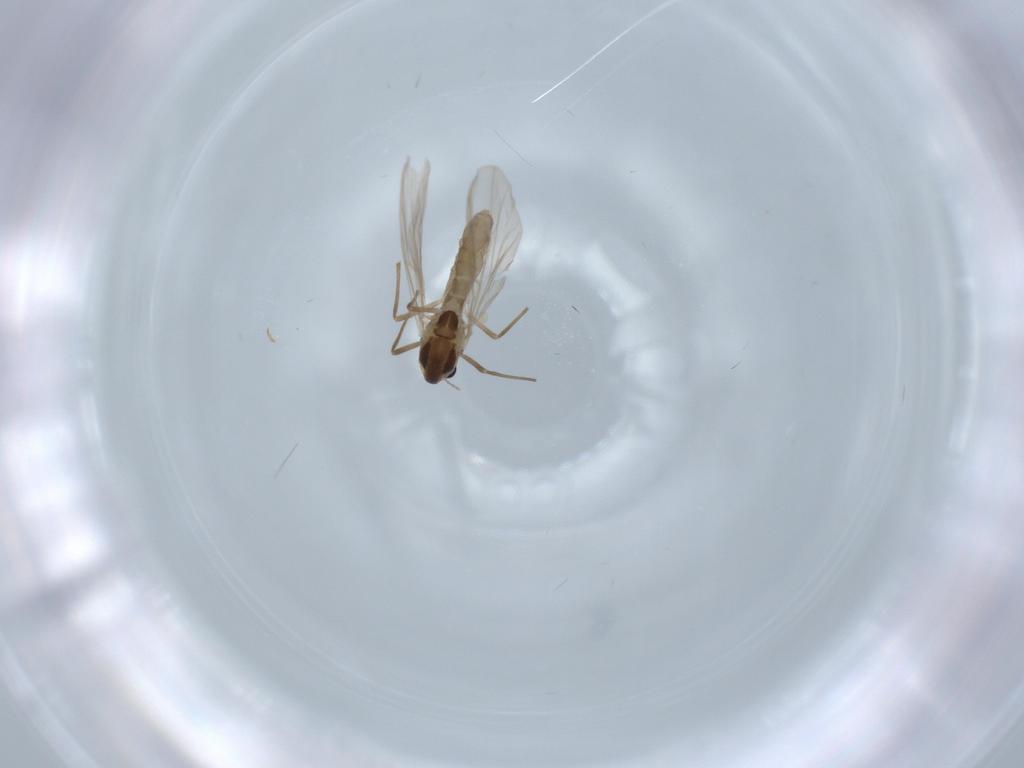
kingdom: Animalia
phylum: Arthropoda
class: Insecta
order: Diptera
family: Chironomidae
